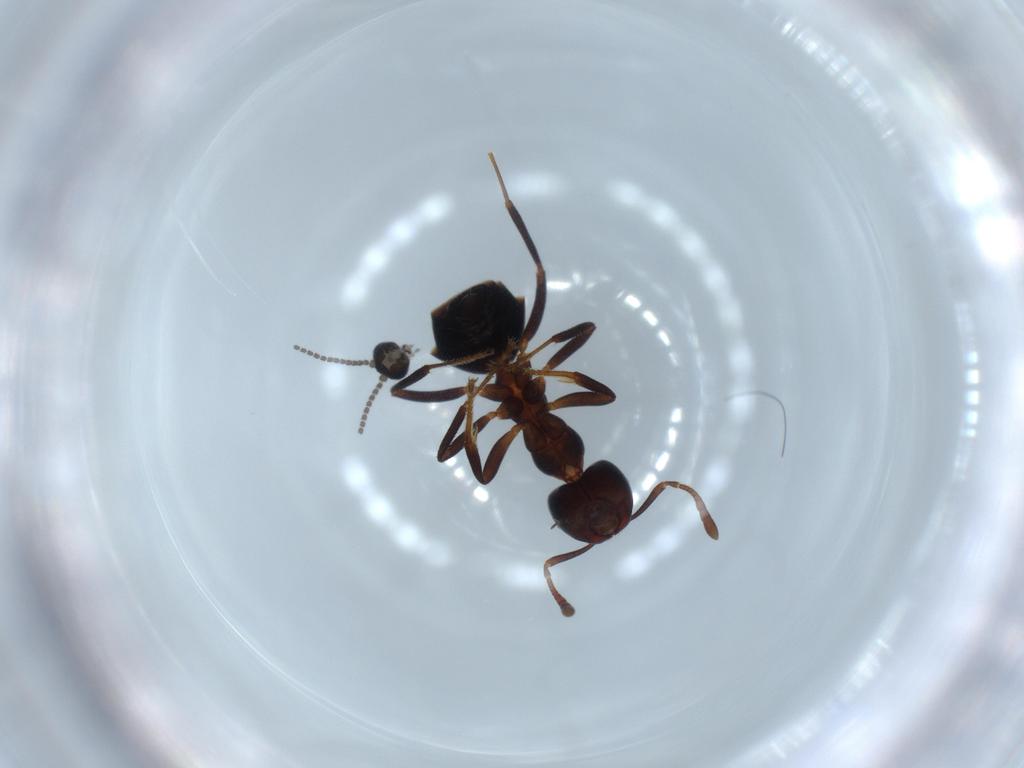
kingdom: Animalia
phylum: Arthropoda
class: Insecta
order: Hymenoptera
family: Formicidae
